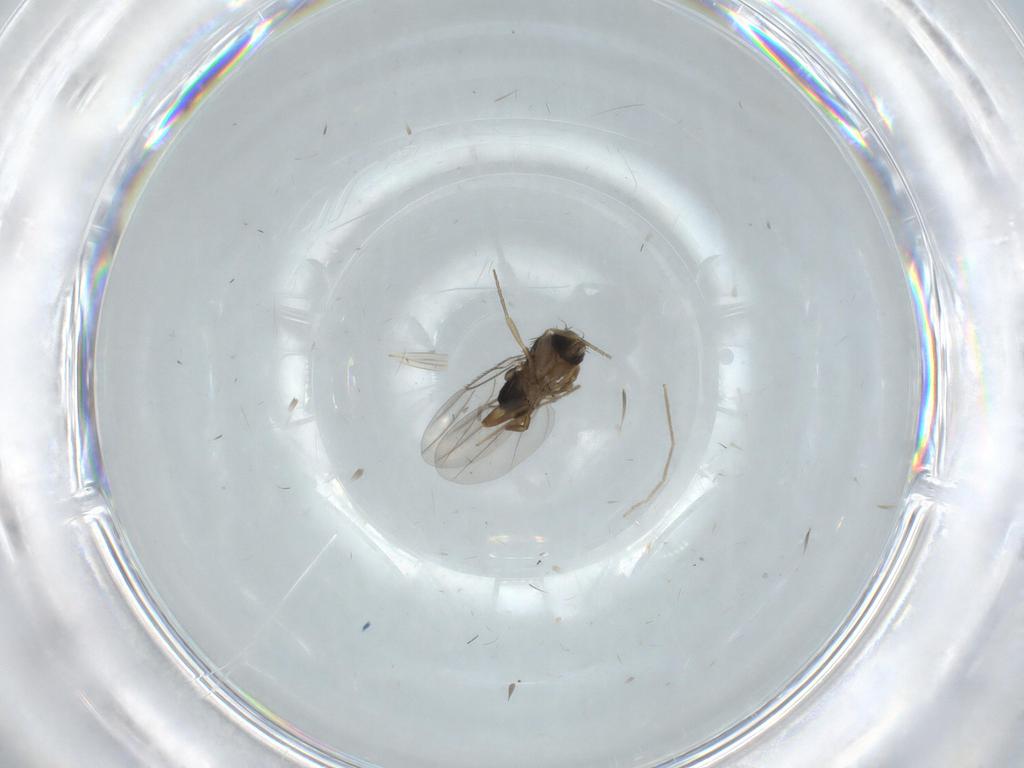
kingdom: Animalia
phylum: Arthropoda
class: Insecta
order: Diptera
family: Phoridae
